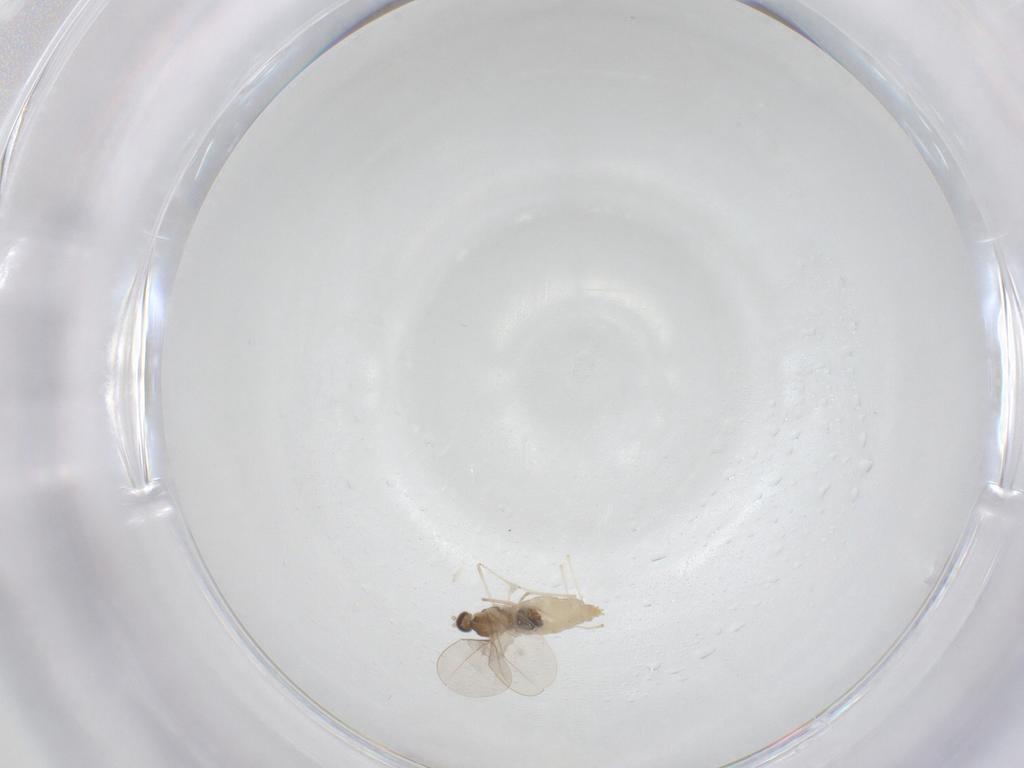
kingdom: Animalia
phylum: Arthropoda
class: Insecta
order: Diptera
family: Cecidomyiidae
